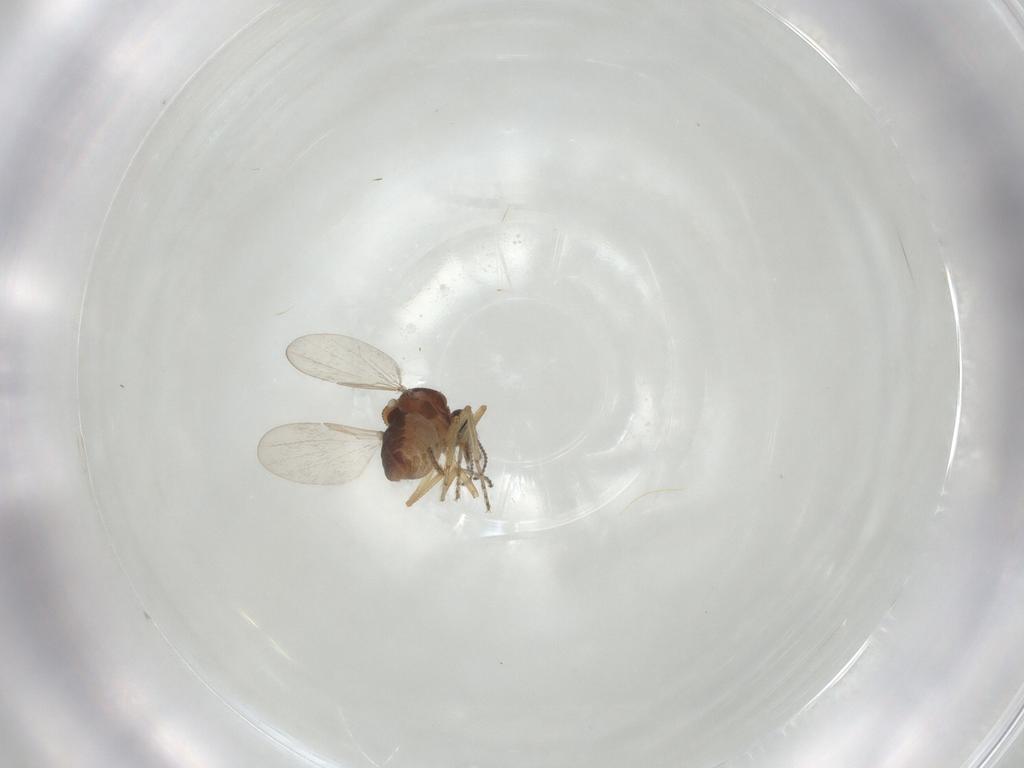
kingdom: Animalia
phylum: Arthropoda
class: Insecta
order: Diptera
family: Ceratopogonidae
